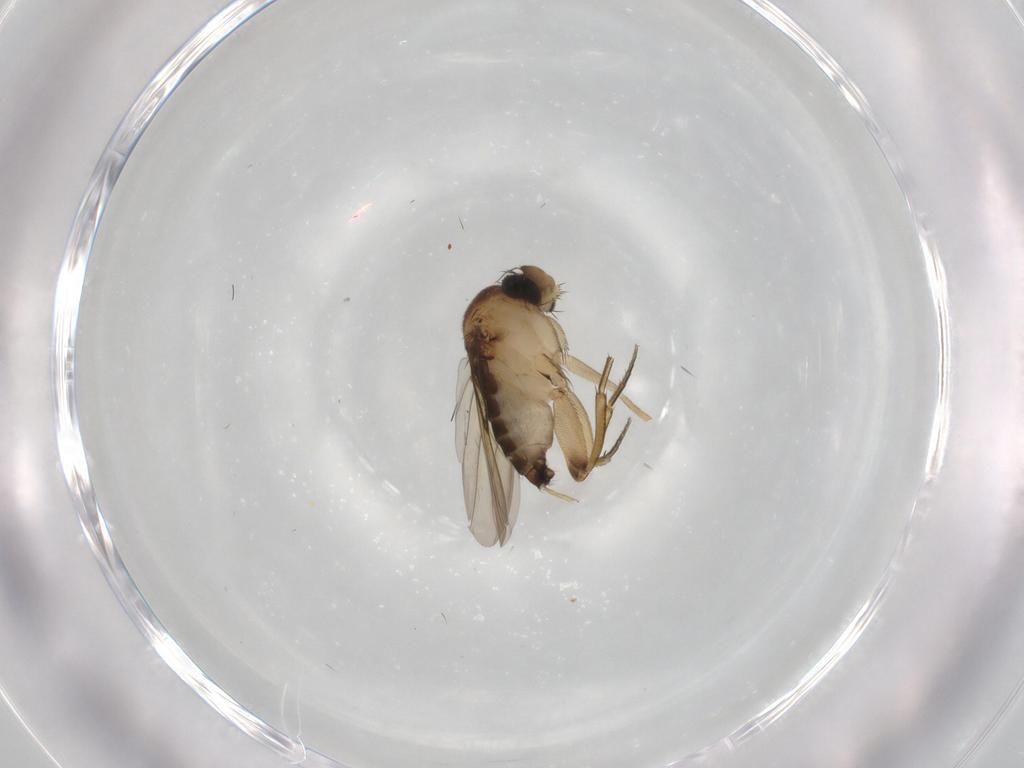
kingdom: Animalia
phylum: Arthropoda
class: Insecta
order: Diptera
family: Phoridae
